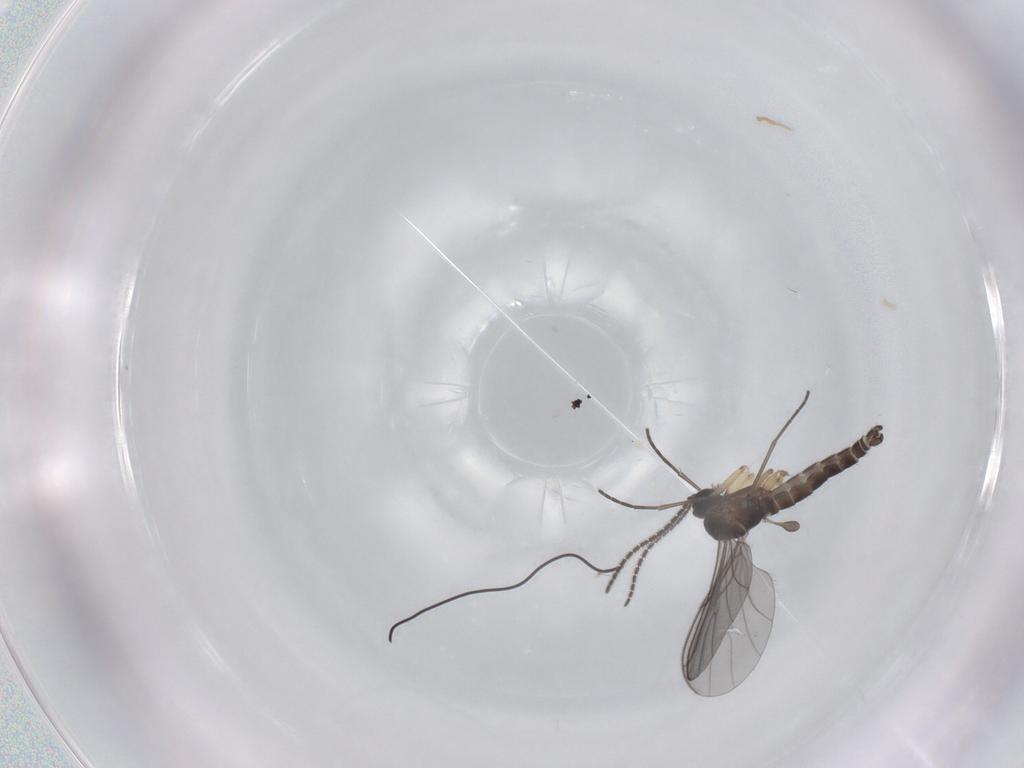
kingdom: Animalia
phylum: Arthropoda
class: Insecta
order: Diptera
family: Sciaridae
